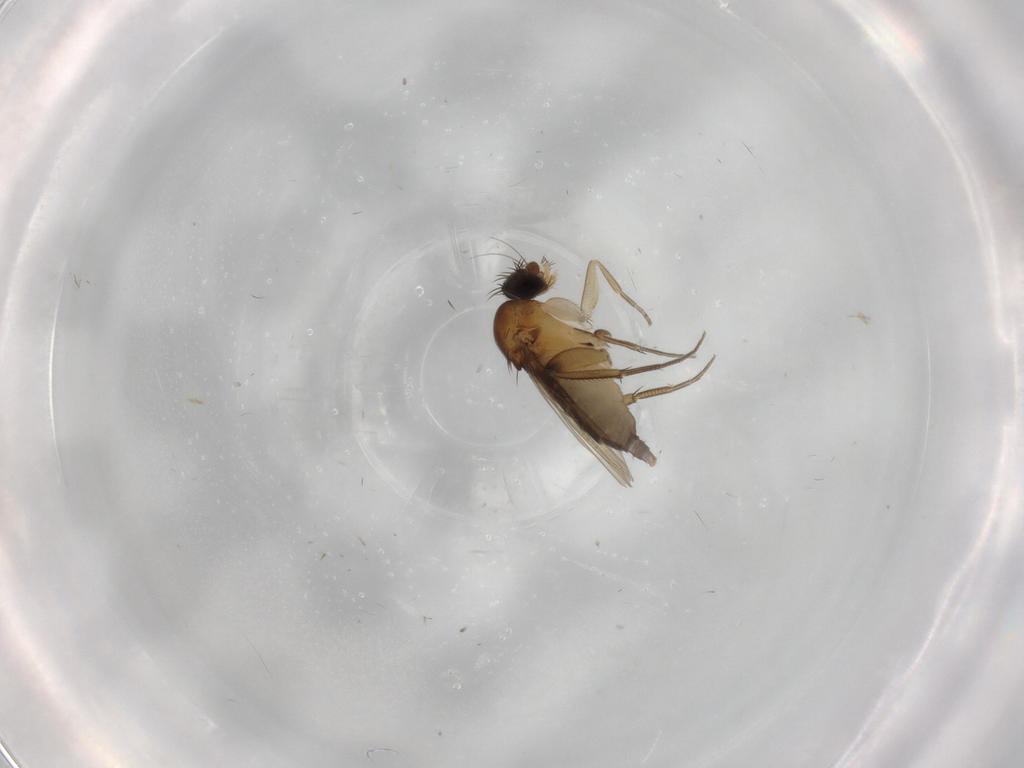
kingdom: Animalia
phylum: Arthropoda
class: Insecta
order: Diptera
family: Phoridae
